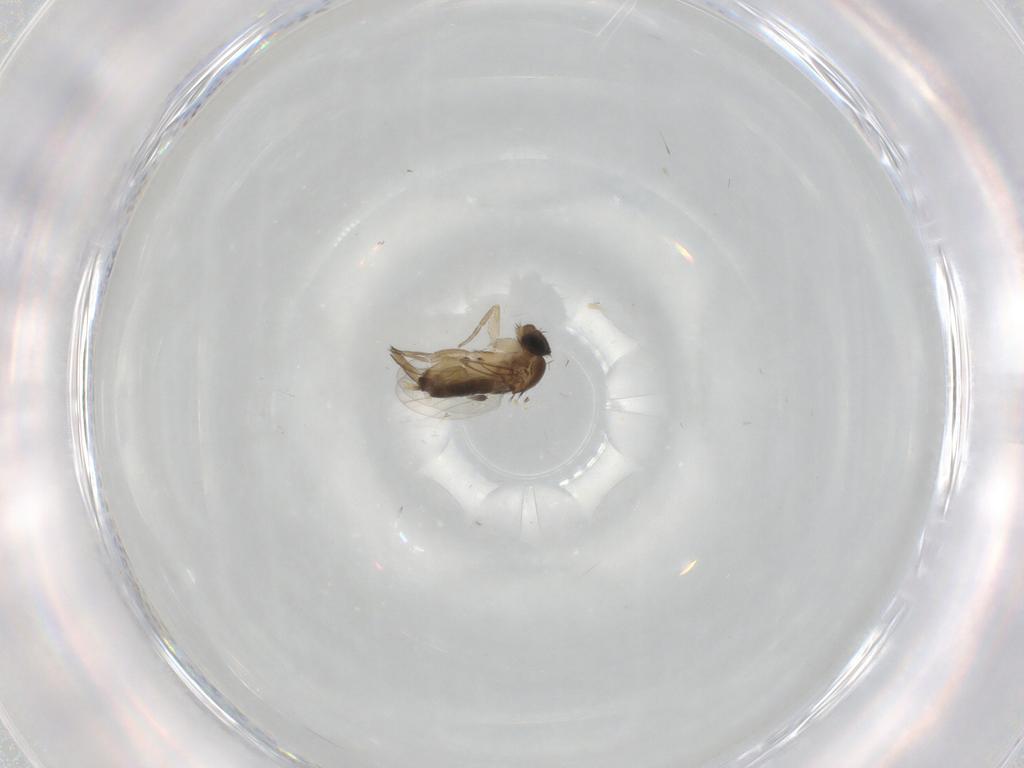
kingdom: Animalia
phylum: Arthropoda
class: Insecta
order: Diptera
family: Phoridae
